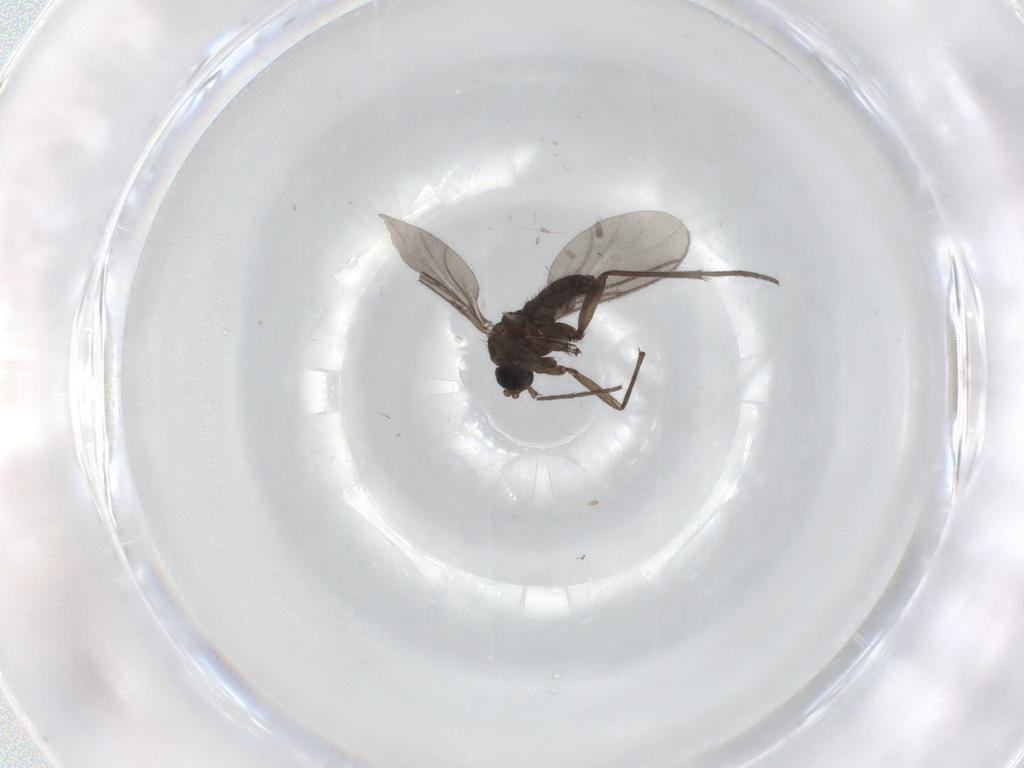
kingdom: Animalia
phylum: Arthropoda
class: Insecta
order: Diptera
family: Sciaridae
